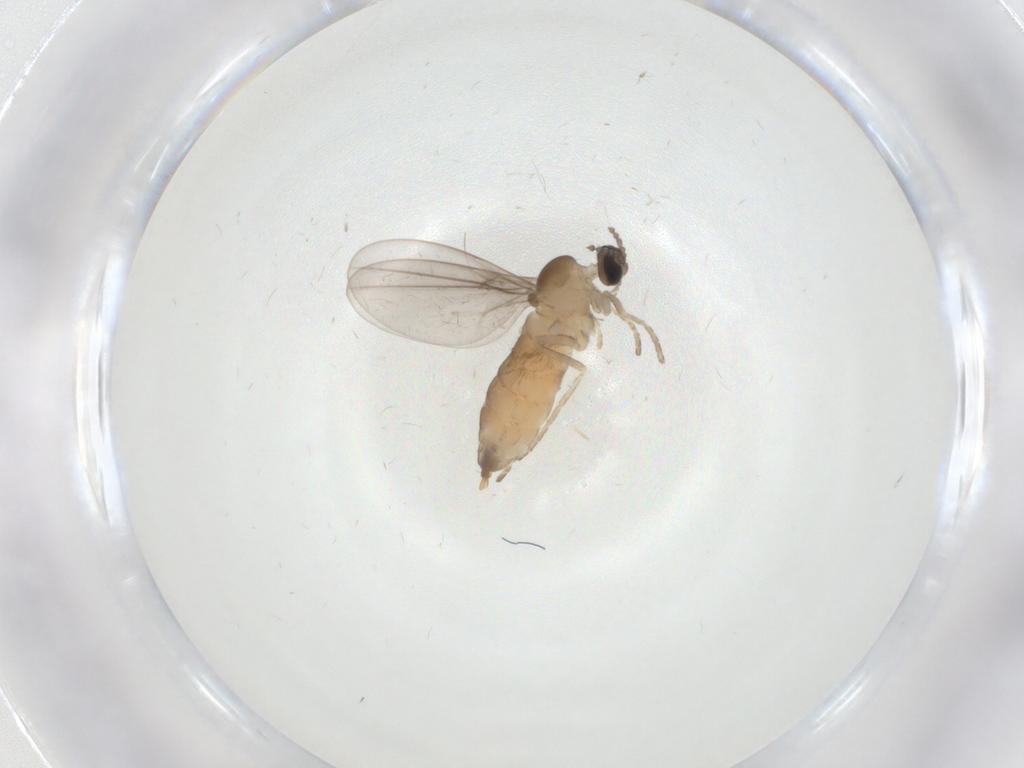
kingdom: Animalia
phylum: Arthropoda
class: Insecta
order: Diptera
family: Cecidomyiidae
